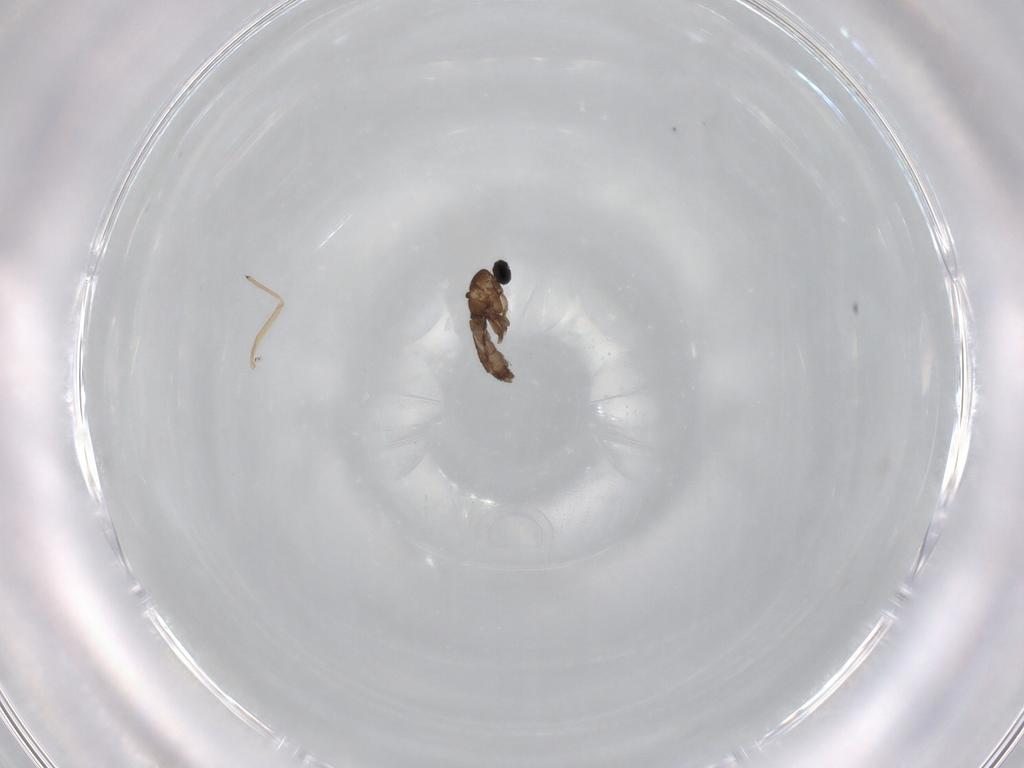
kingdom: Animalia
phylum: Arthropoda
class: Insecta
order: Diptera
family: Dolichopodidae
